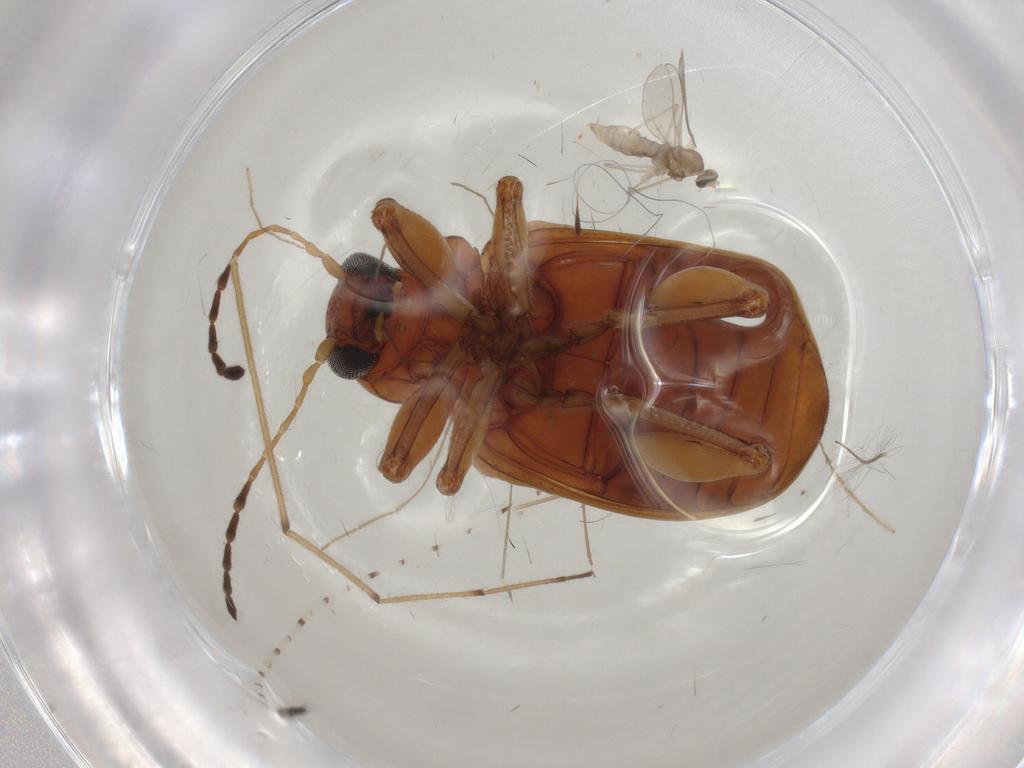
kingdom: Animalia
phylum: Arthropoda
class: Insecta
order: Coleoptera
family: Chrysomelidae
